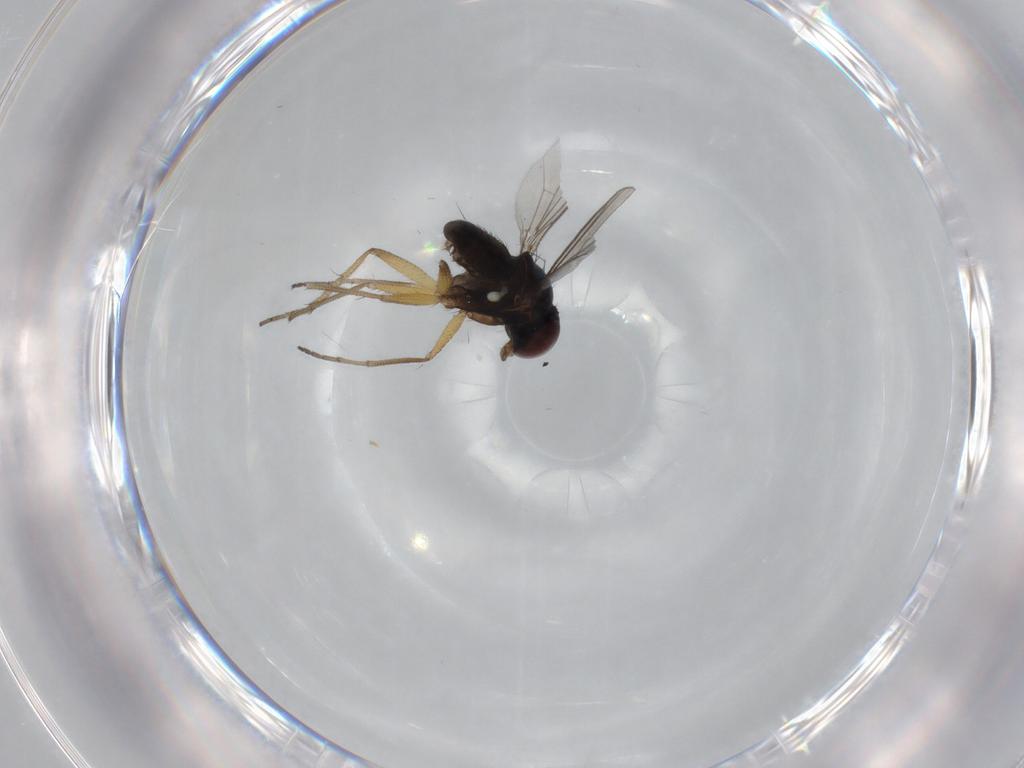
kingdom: Animalia
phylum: Arthropoda
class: Insecta
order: Diptera
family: Dolichopodidae
